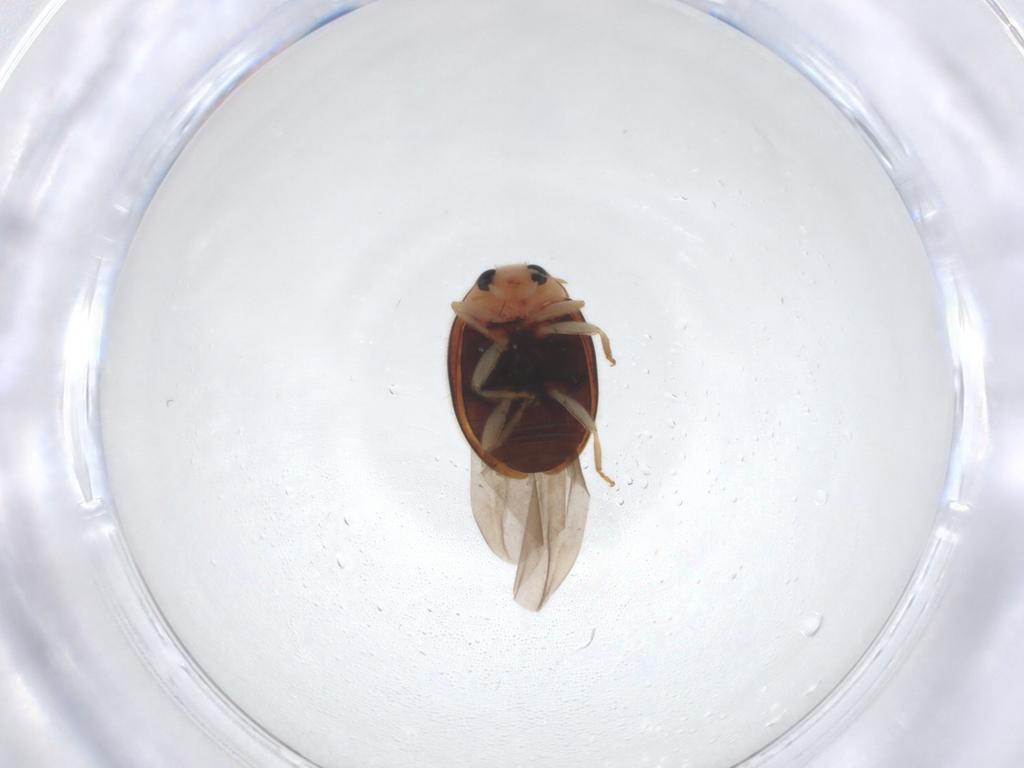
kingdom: Animalia
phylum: Arthropoda
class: Insecta
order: Coleoptera
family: Coccinellidae
